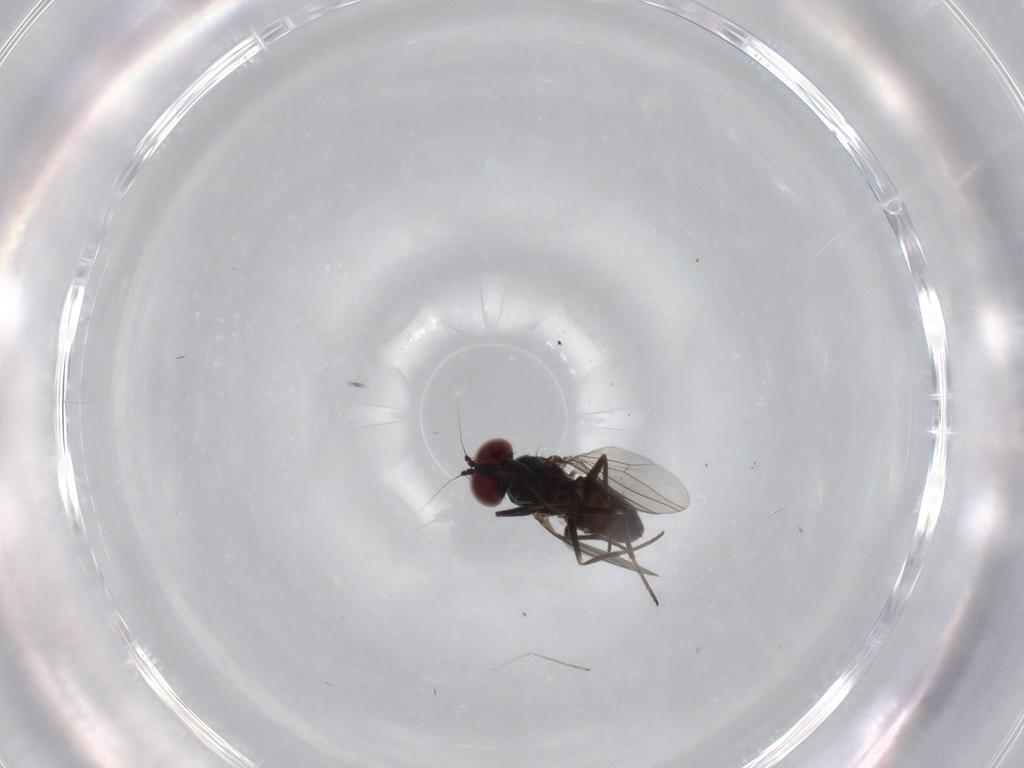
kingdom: Animalia
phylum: Arthropoda
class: Insecta
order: Diptera
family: Dolichopodidae
